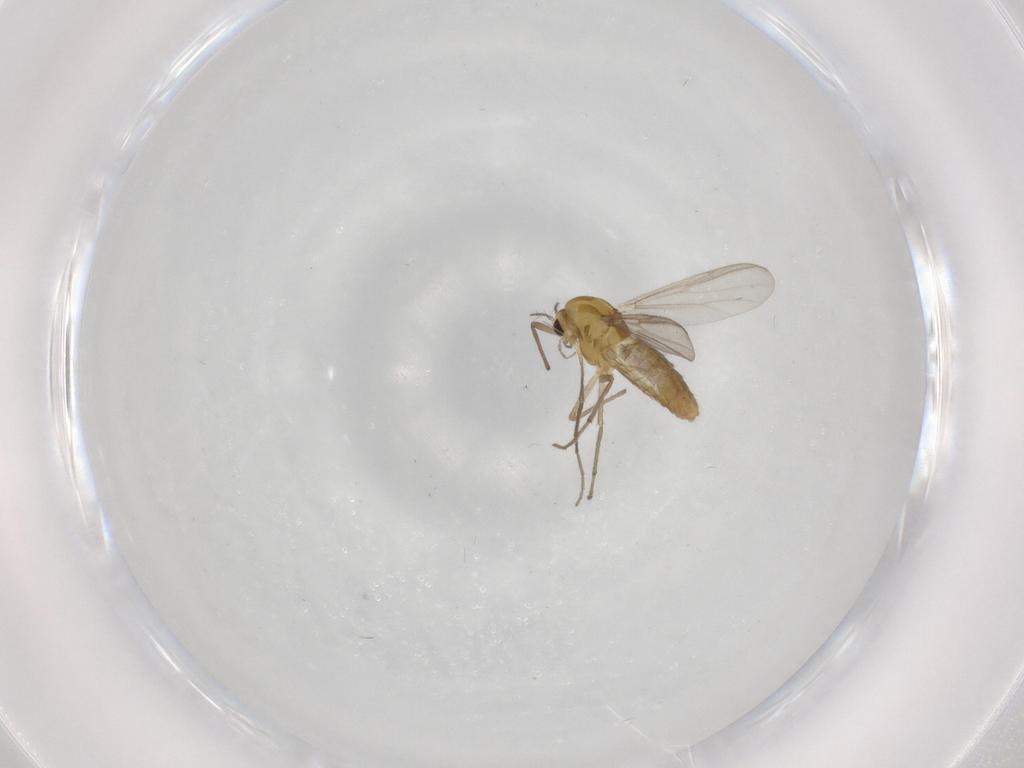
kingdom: Animalia
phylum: Arthropoda
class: Insecta
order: Diptera
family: Chironomidae
